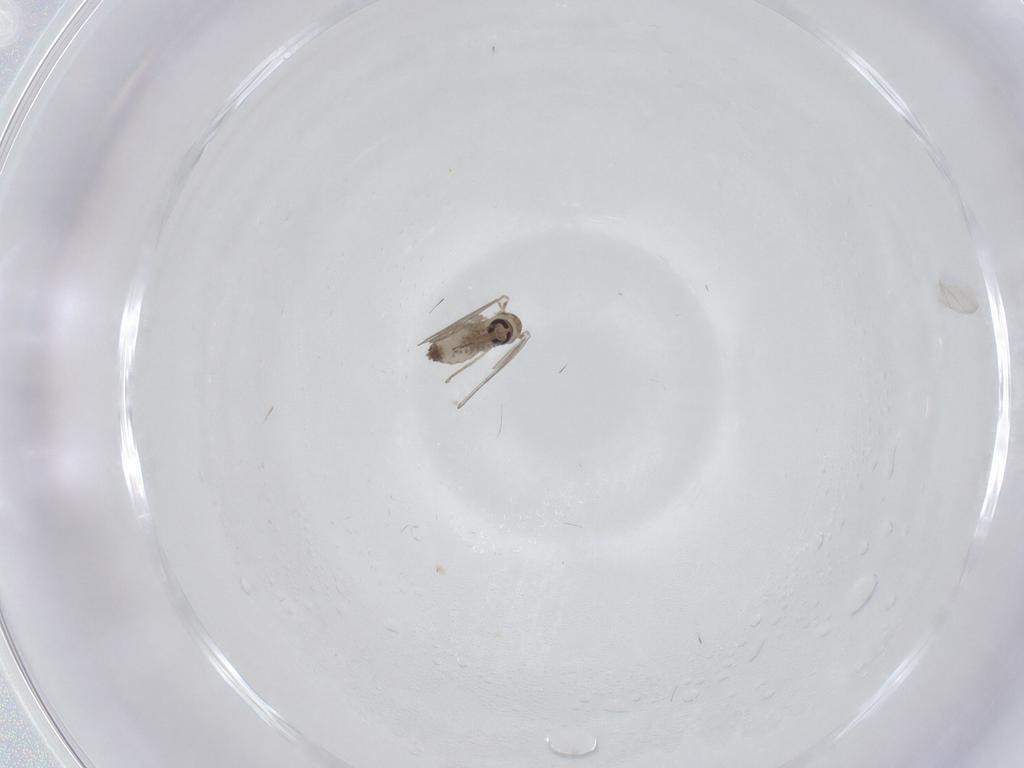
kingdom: Animalia
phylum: Arthropoda
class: Insecta
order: Diptera
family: Psychodidae
